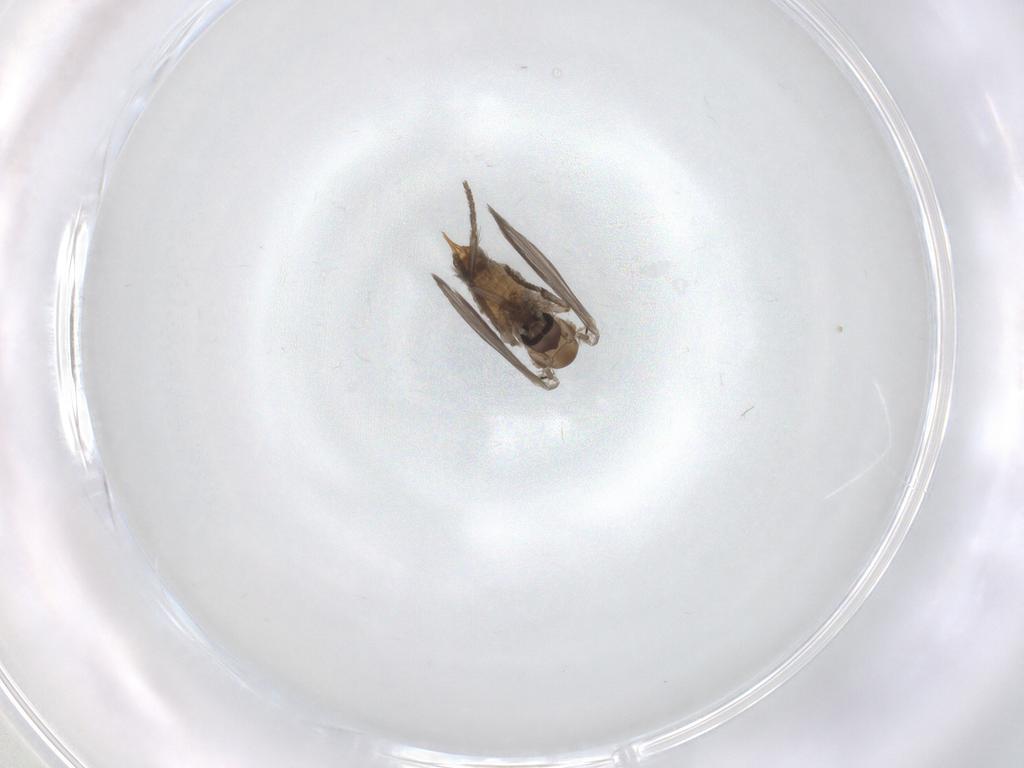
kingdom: Animalia
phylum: Arthropoda
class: Insecta
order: Diptera
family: Psychodidae
